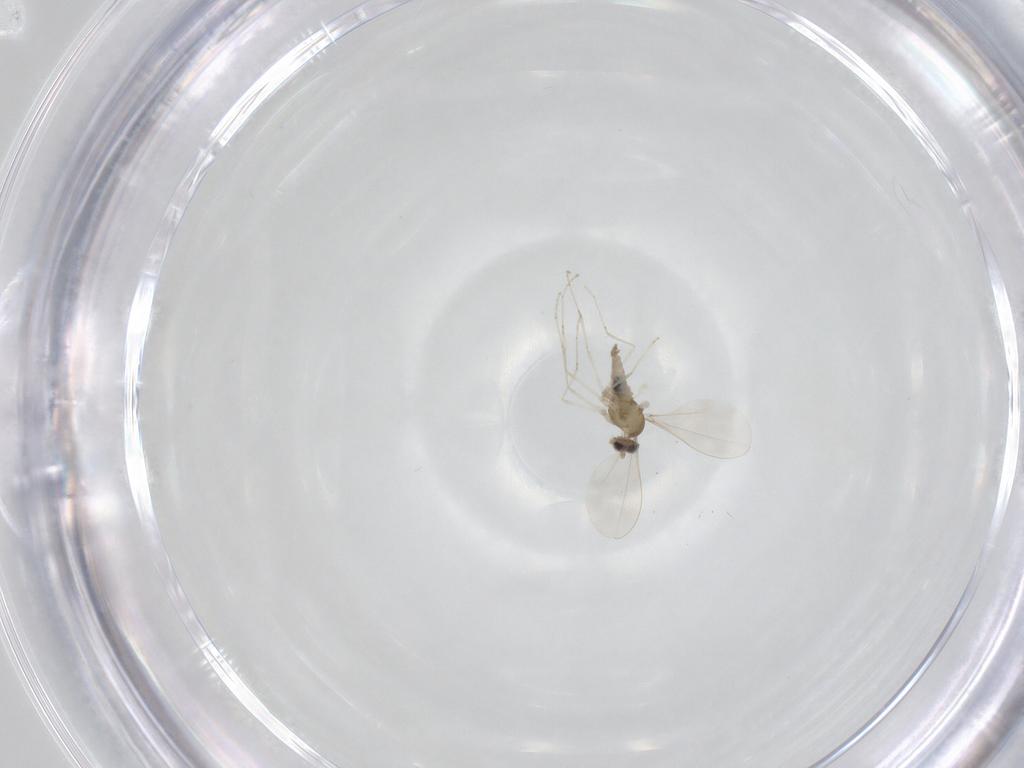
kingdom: Animalia
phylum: Arthropoda
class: Insecta
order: Diptera
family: Cecidomyiidae
